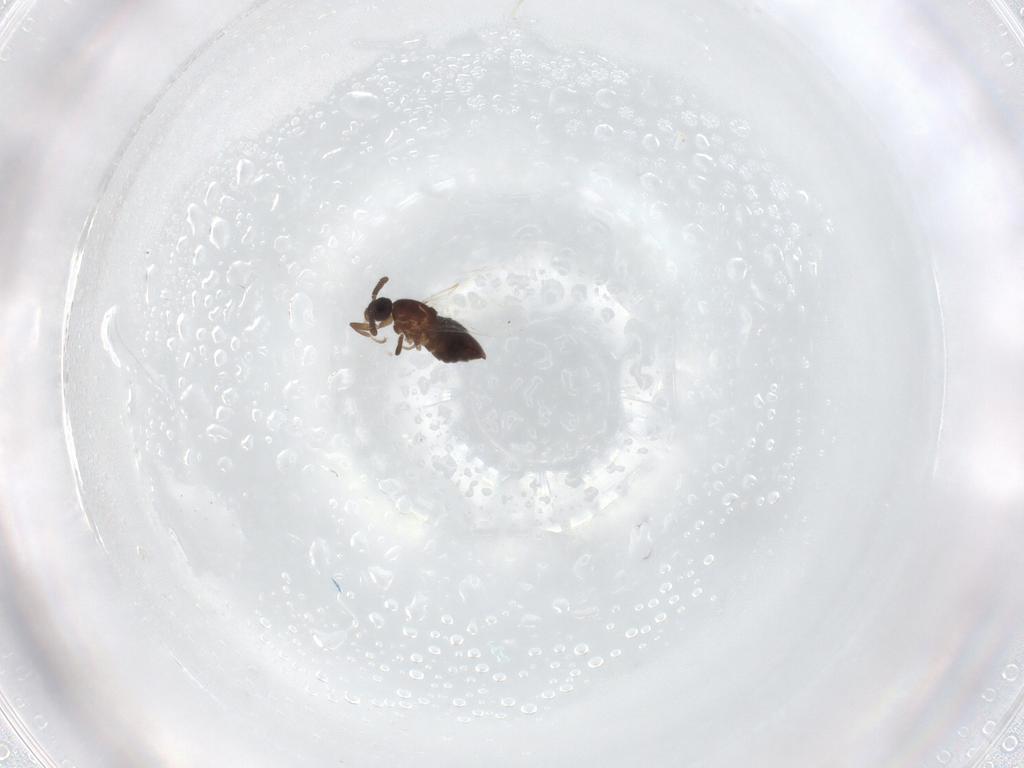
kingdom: Animalia
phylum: Arthropoda
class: Insecta
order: Diptera
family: Scatopsidae
